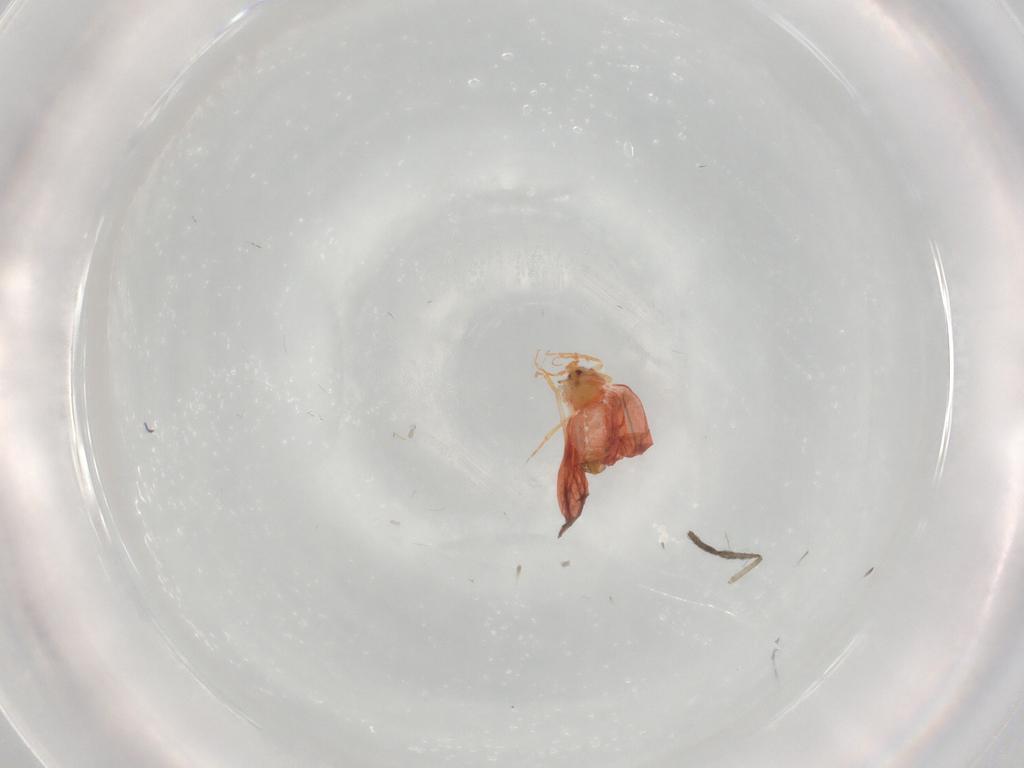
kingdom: Animalia
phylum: Arthropoda
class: Insecta
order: Hemiptera
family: Aleyrodidae
